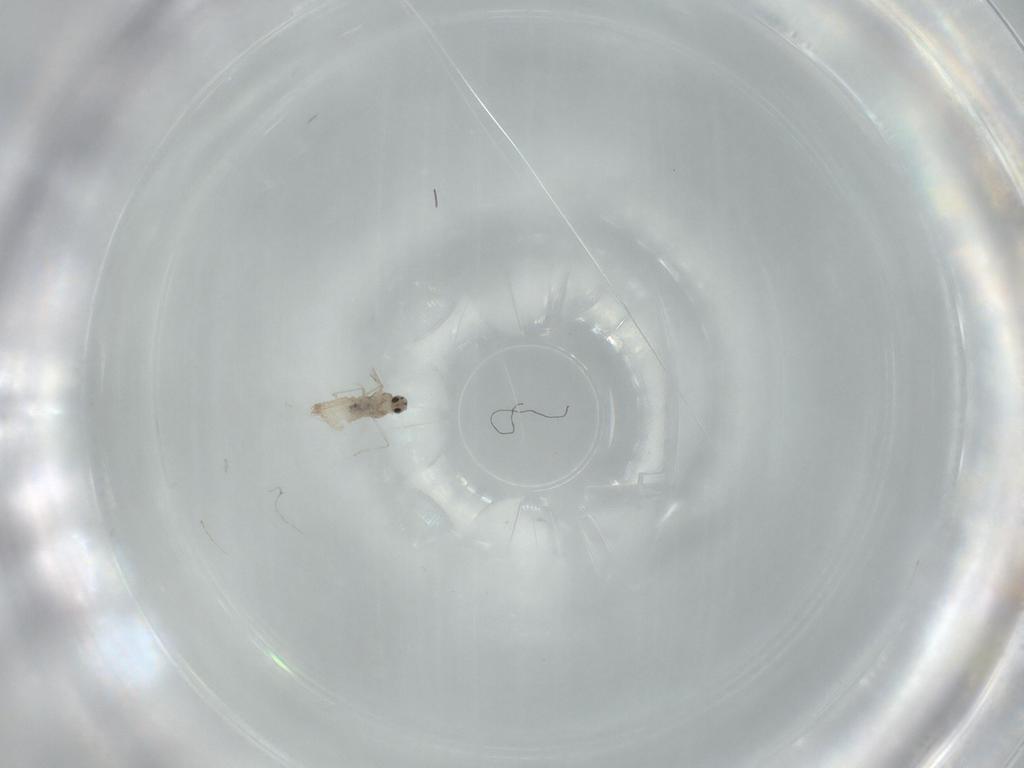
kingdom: Animalia
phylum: Arthropoda
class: Insecta
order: Diptera
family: Cecidomyiidae
